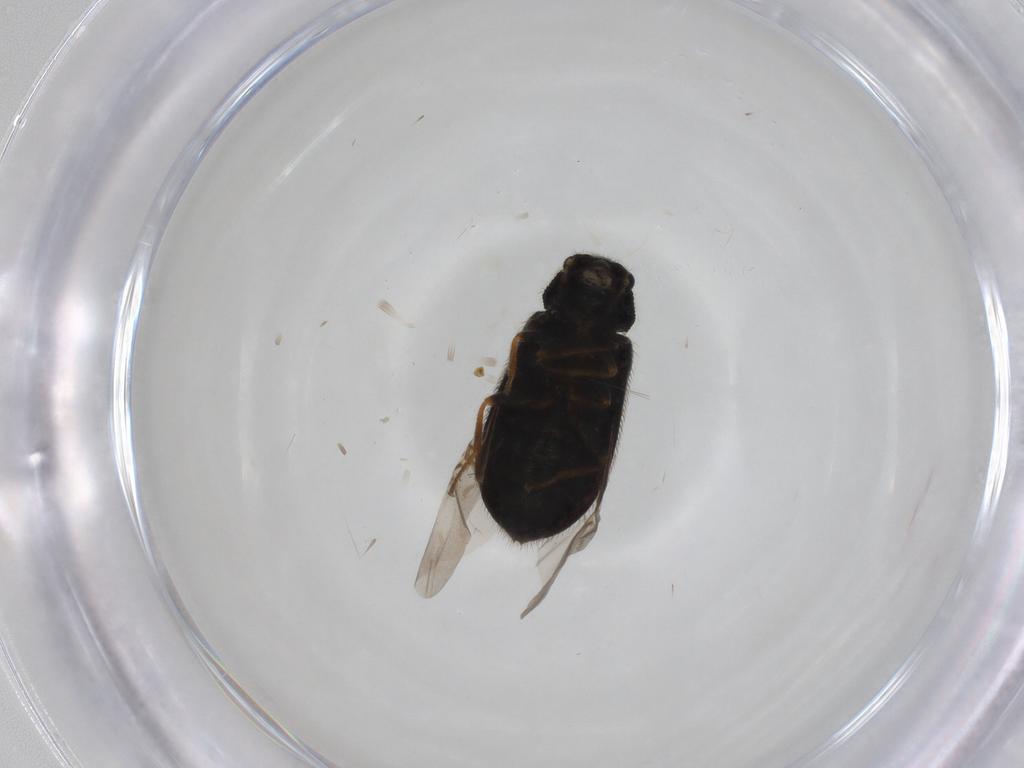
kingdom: Animalia
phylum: Arthropoda
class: Insecta
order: Coleoptera
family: Melyridae
